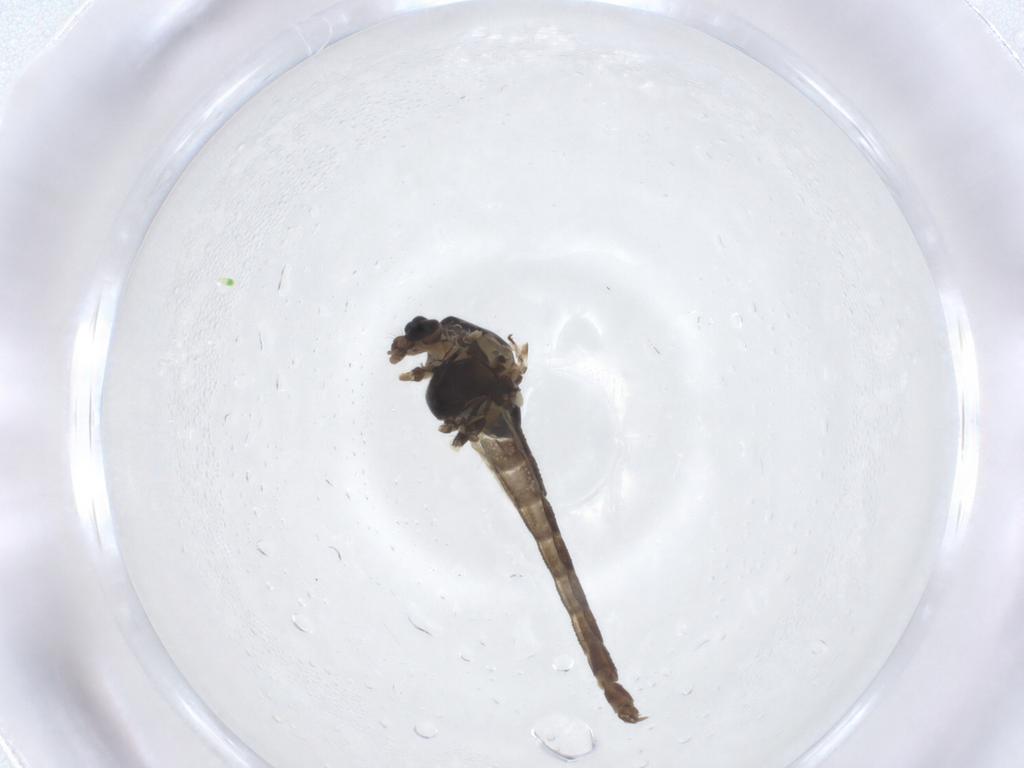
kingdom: Animalia
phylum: Arthropoda
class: Insecta
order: Diptera
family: Chironomidae
